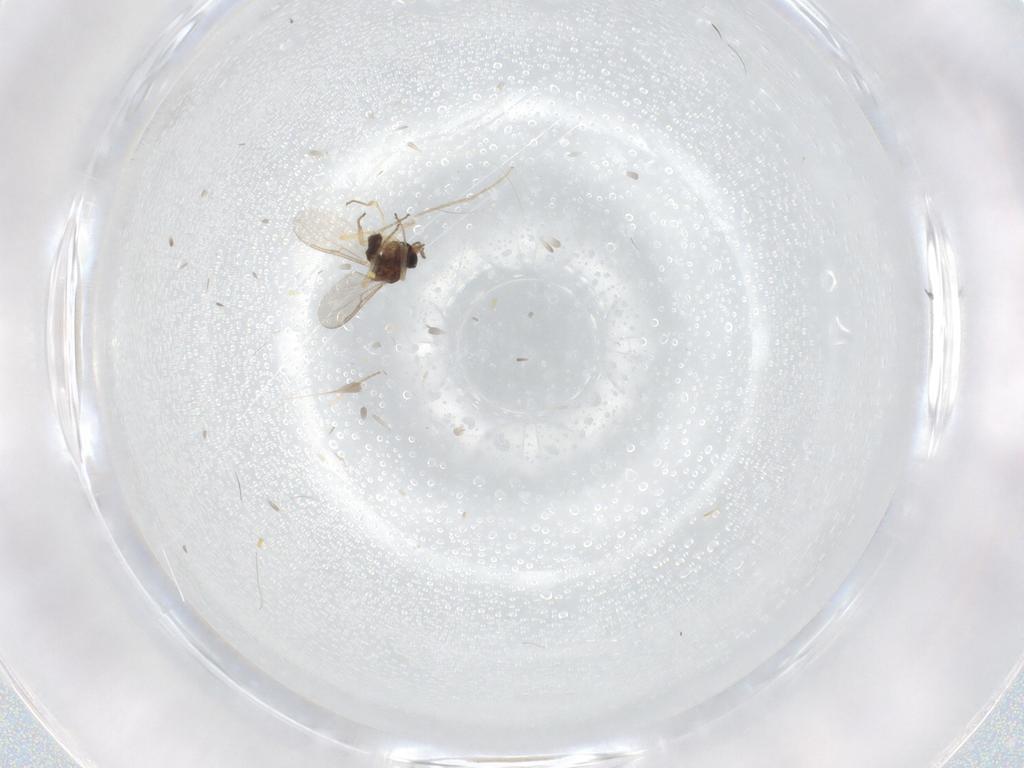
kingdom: Animalia
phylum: Arthropoda
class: Insecta
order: Diptera
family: Ceratopogonidae
